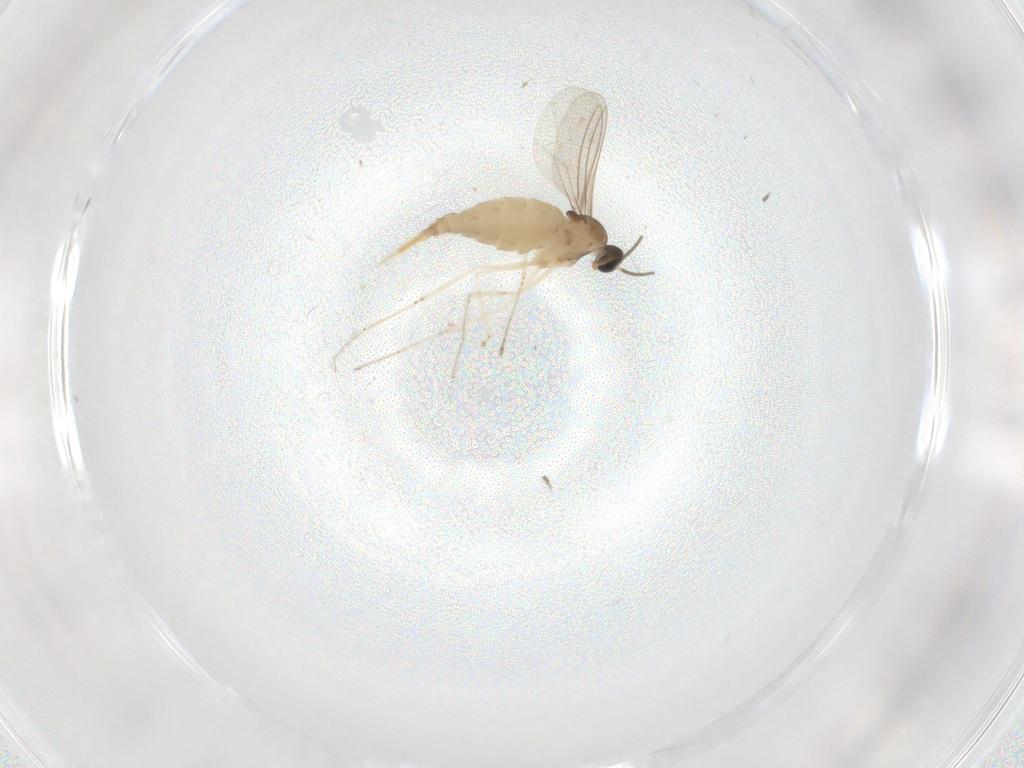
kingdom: Animalia
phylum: Arthropoda
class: Insecta
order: Diptera
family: Cecidomyiidae
